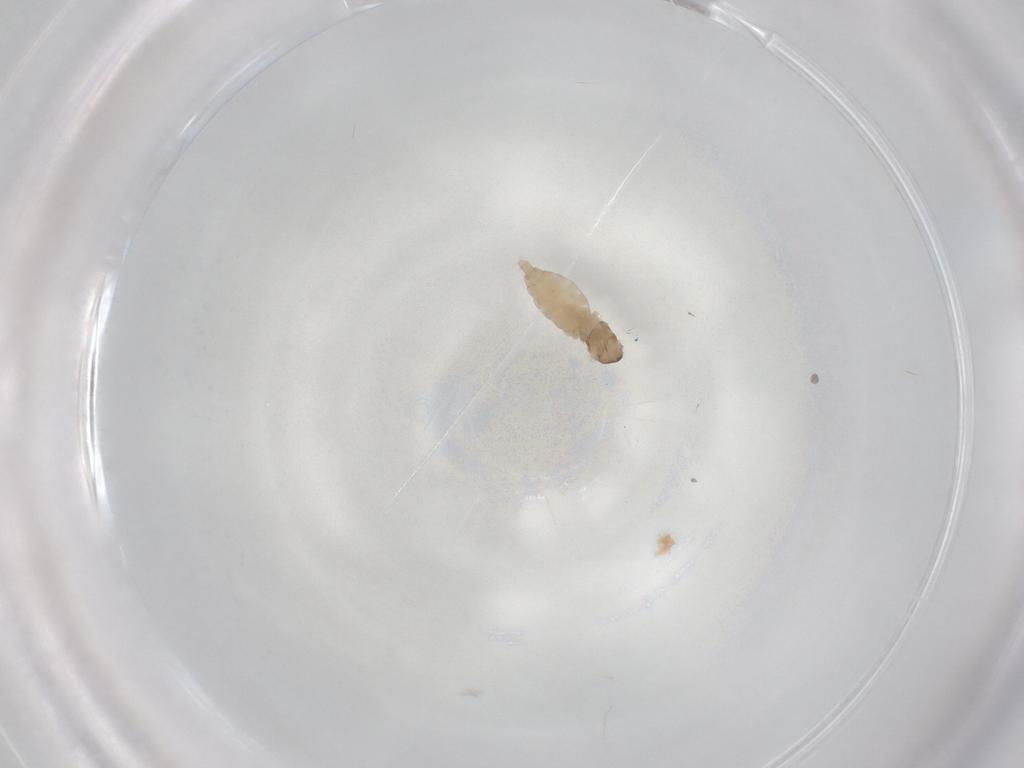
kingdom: Animalia
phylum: Arthropoda
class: Insecta
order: Diptera
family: Cecidomyiidae
